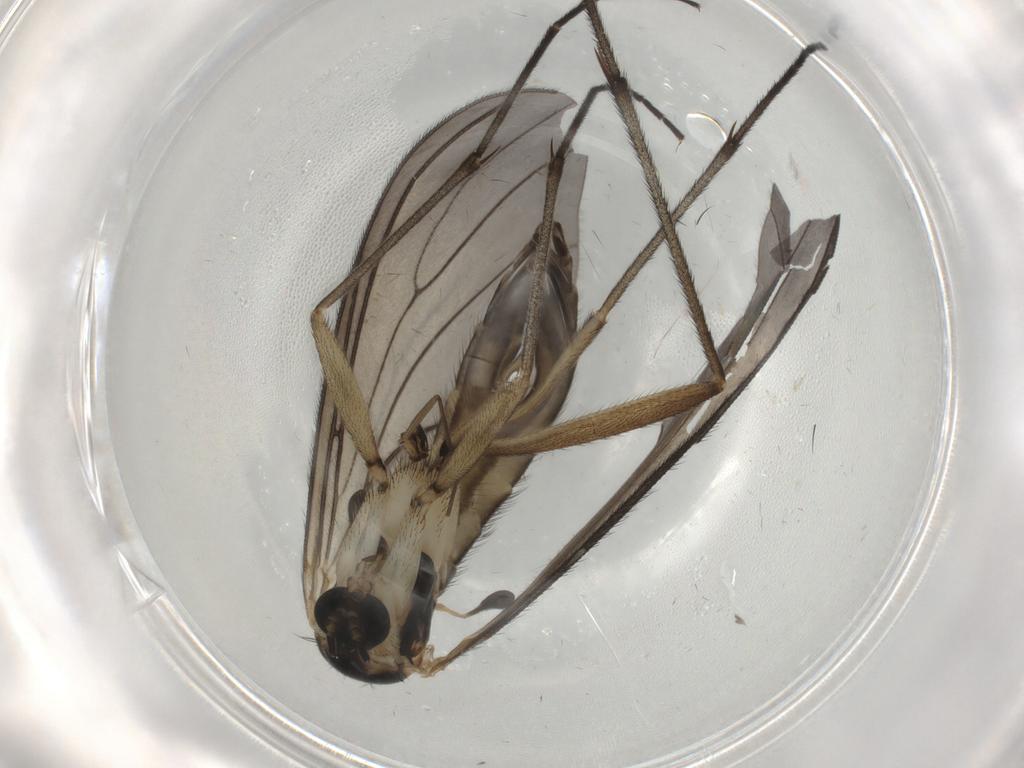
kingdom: Animalia
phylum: Arthropoda
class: Insecta
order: Diptera
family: Sciaridae
